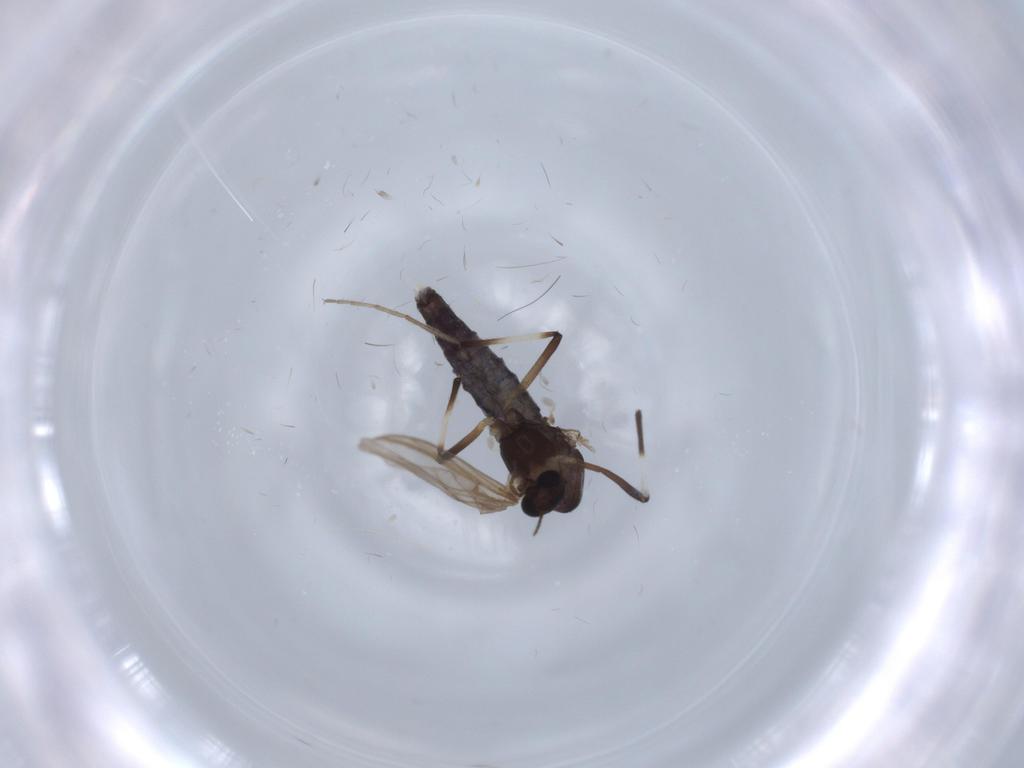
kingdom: Animalia
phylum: Arthropoda
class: Insecta
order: Diptera
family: Chironomidae
